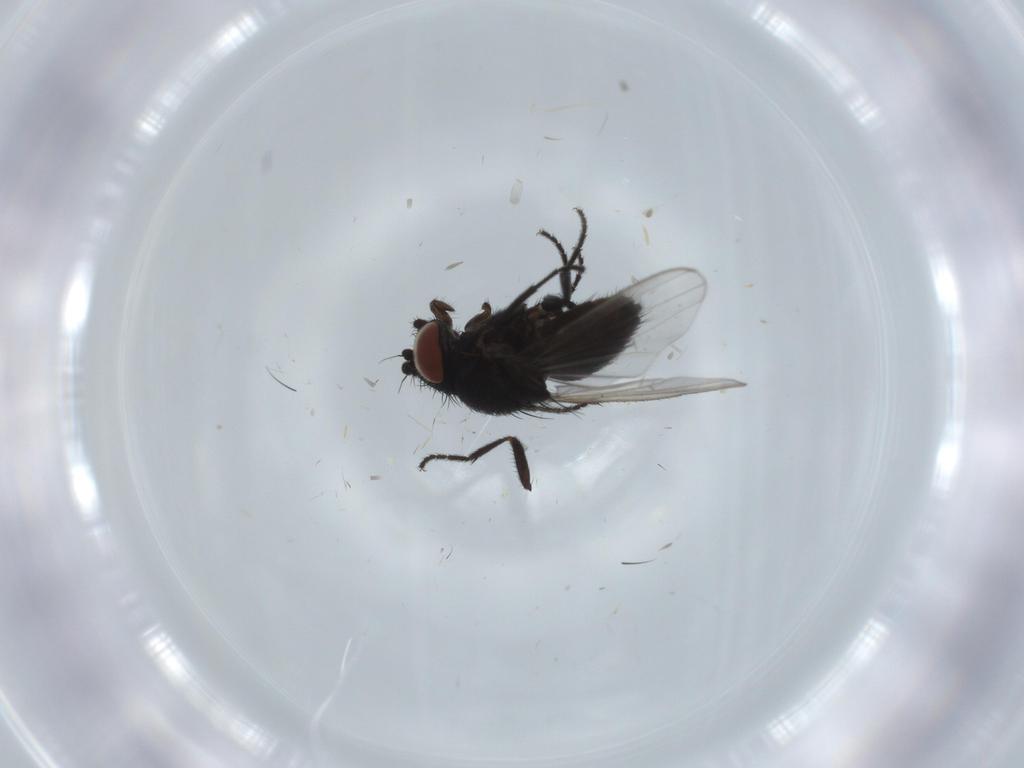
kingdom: Animalia
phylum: Arthropoda
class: Insecta
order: Diptera
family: Milichiidae
